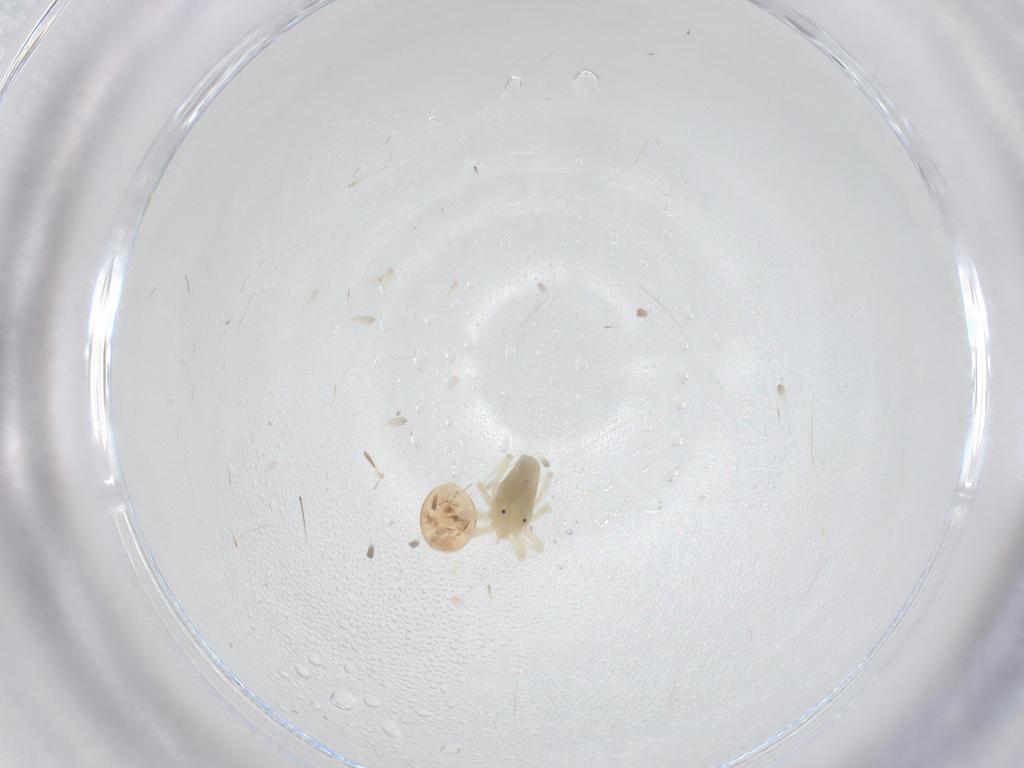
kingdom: Animalia
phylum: Arthropoda
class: Arachnida
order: Trombidiformes
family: Anystidae
